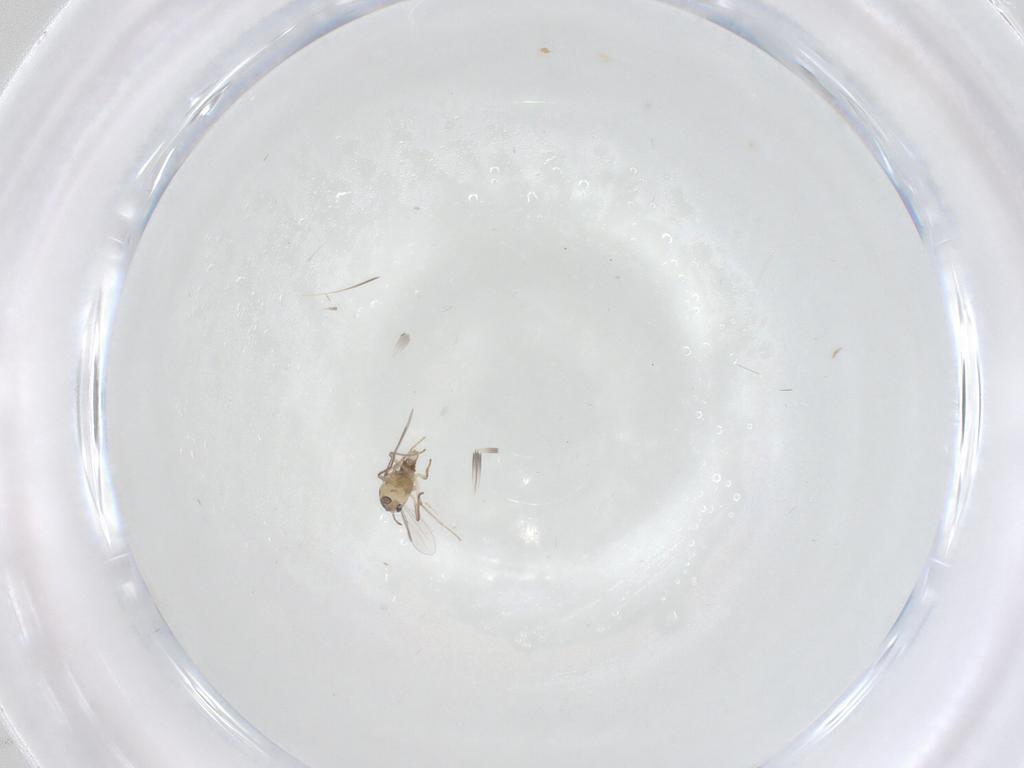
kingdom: Animalia
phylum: Arthropoda
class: Insecta
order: Diptera
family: Chironomidae
